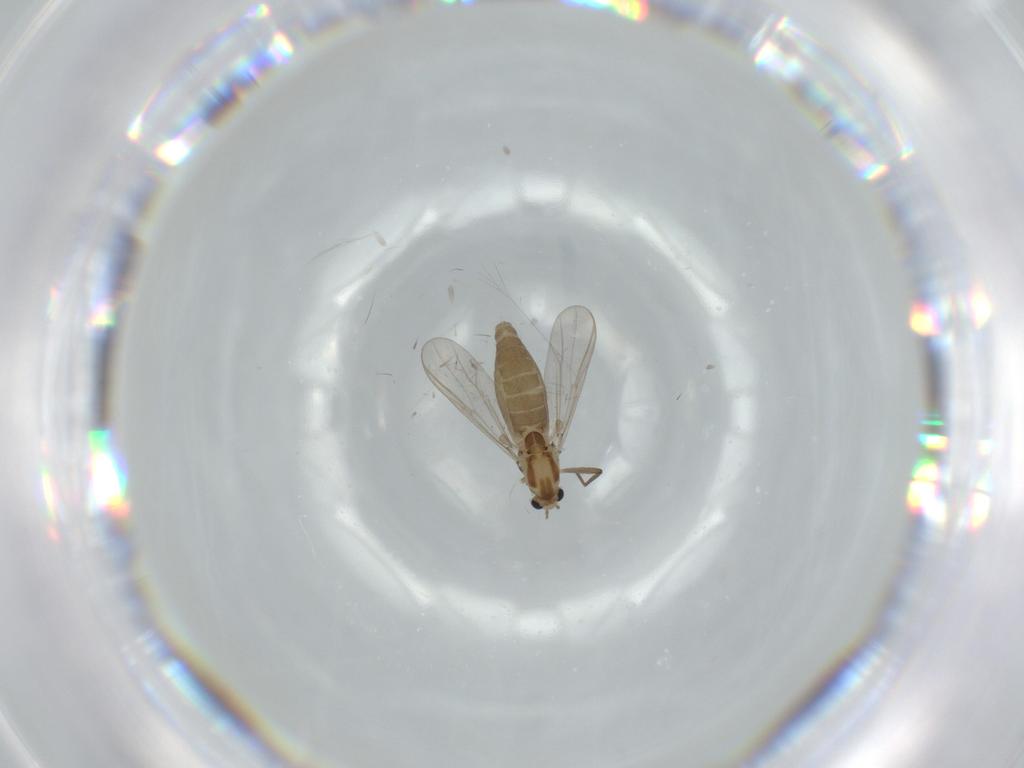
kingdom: Animalia
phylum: Arthropoda
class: Insecta
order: Diptera
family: Chironomidae
